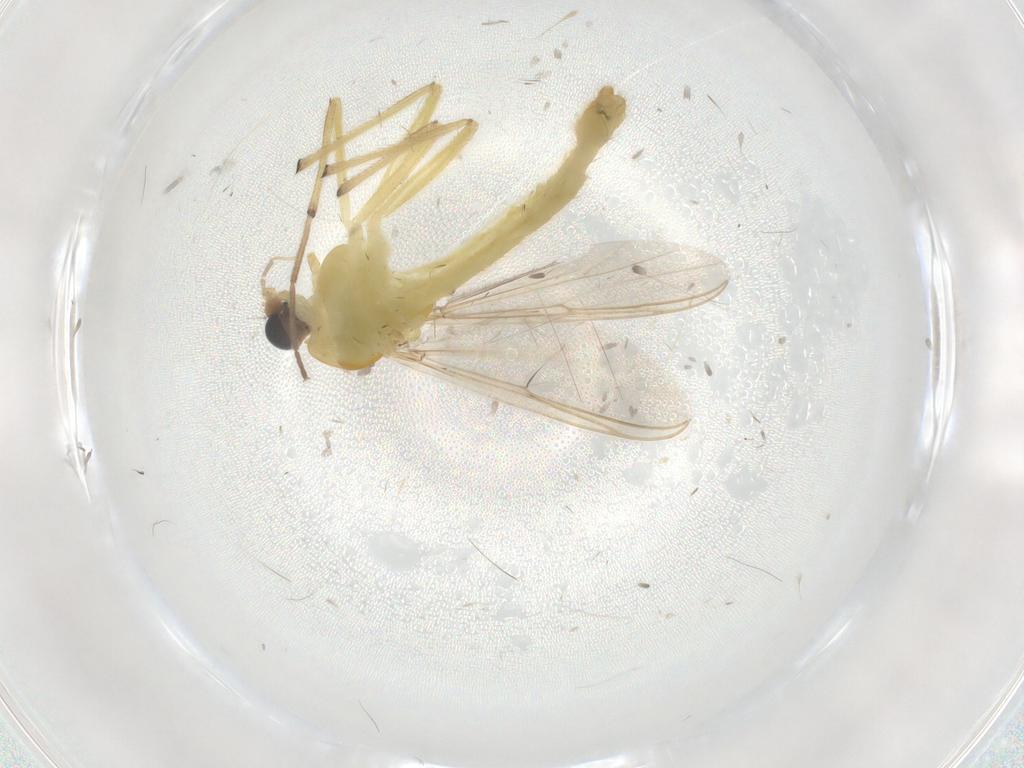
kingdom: Animalia
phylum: Arthropoda
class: Insecta
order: Diptera
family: Chironomidae
